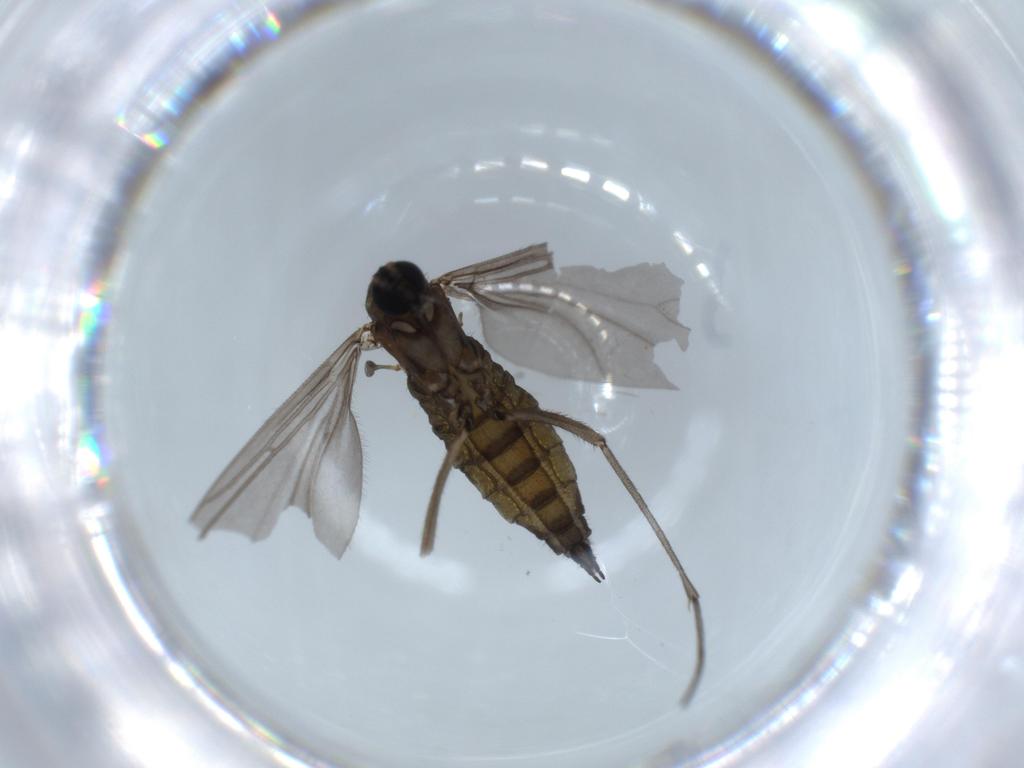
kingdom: Animalia
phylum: Arthropoda
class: Insecta
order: Diptera
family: Sciaridae
